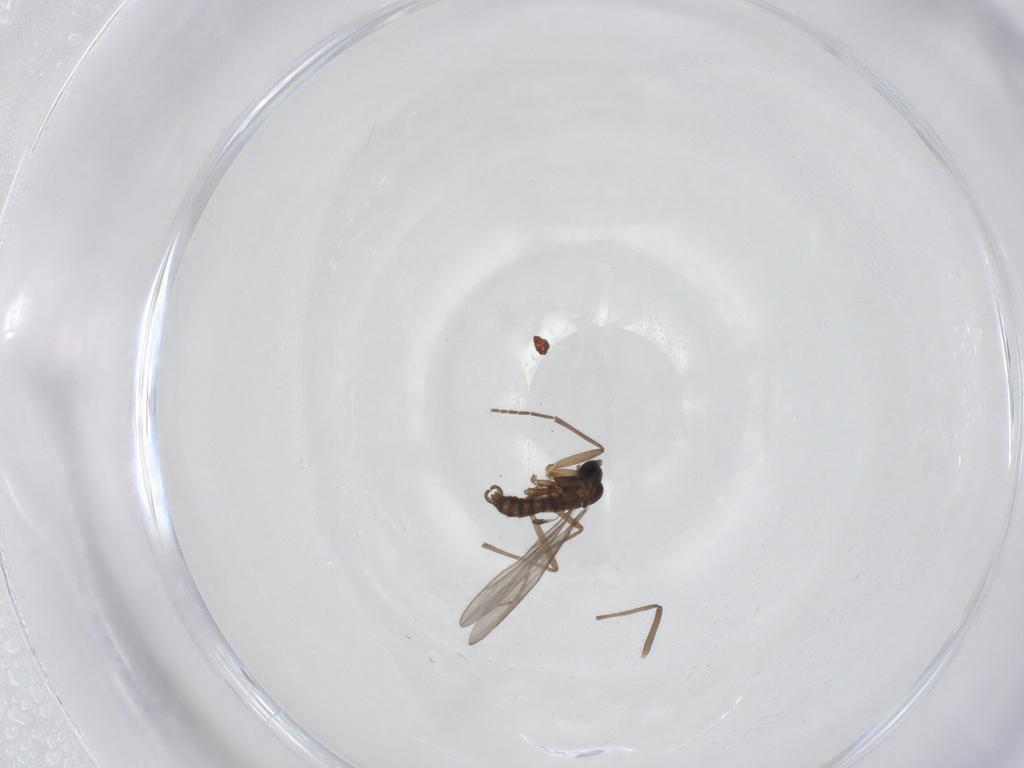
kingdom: Animalia
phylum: Arthropoda
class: Insecta
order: Diptera
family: Sciaridae
